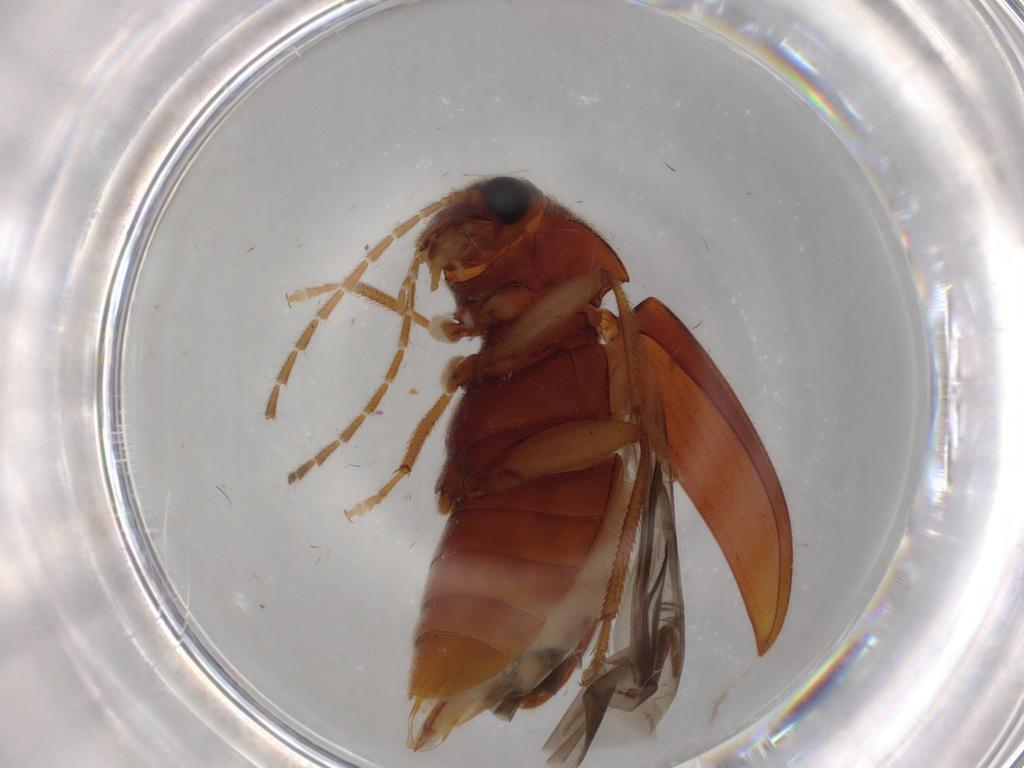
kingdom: Animalia
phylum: Arthropoda
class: Insecta
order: Coleoptera
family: Ptilodactylidae
